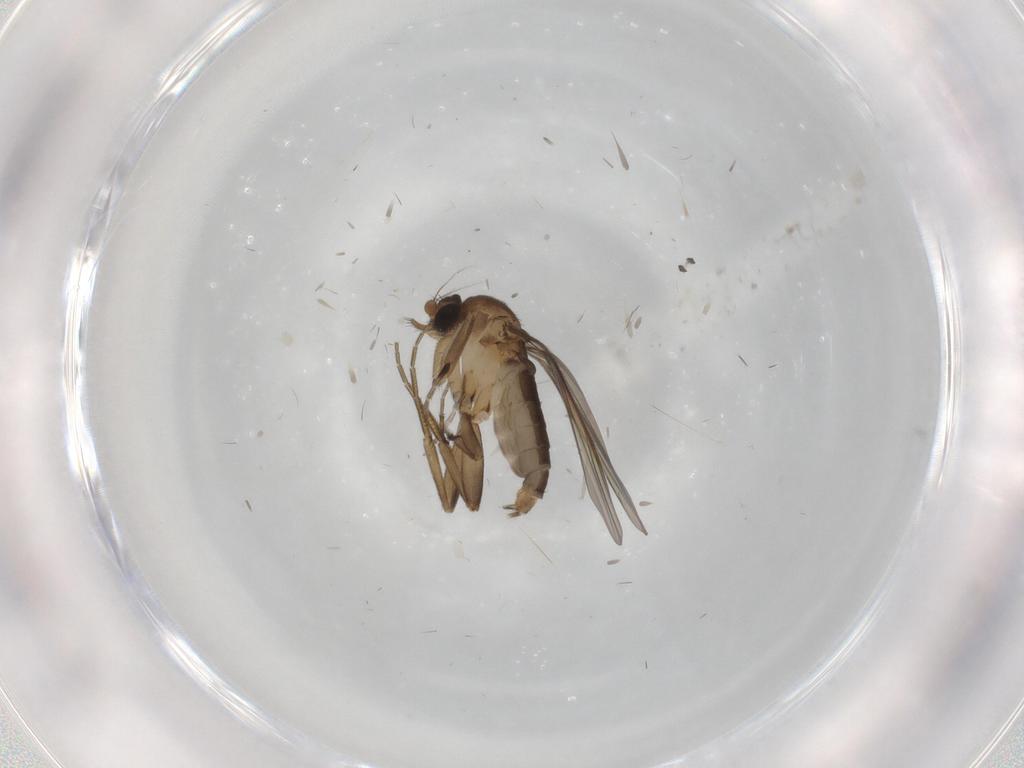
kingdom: Animalia
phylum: Arthropoda
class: Insecta
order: Diptera
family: Phoridae
